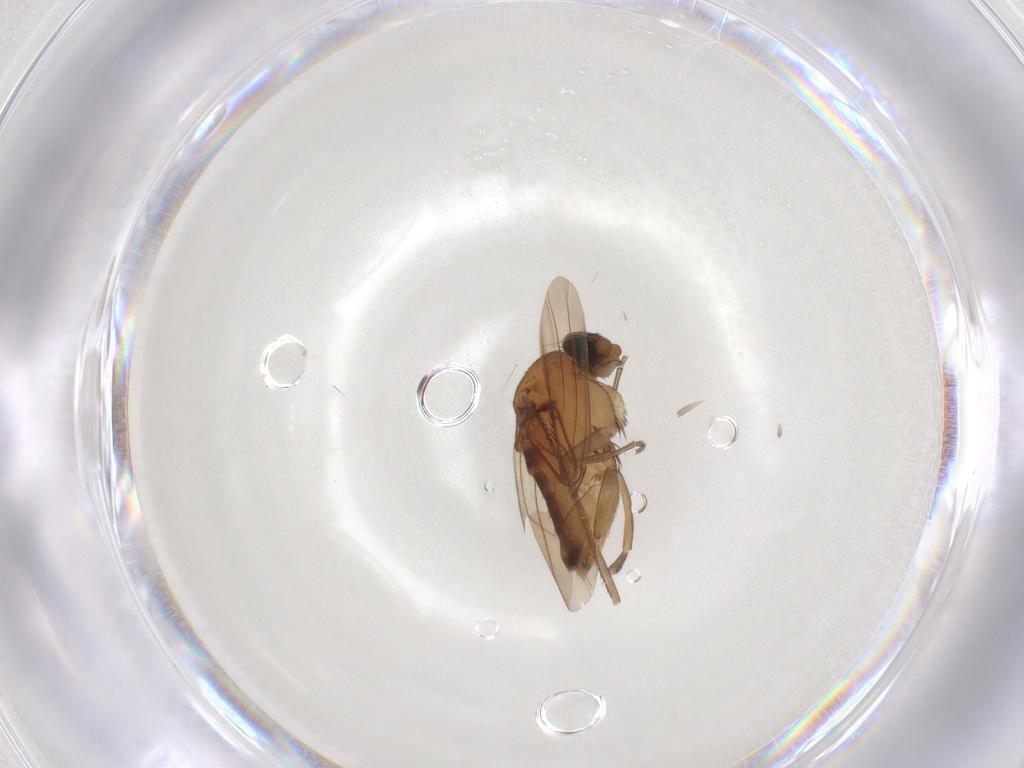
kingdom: Animalia
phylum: Arthropoda
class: Insecta
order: Diptera
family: Phoridae
